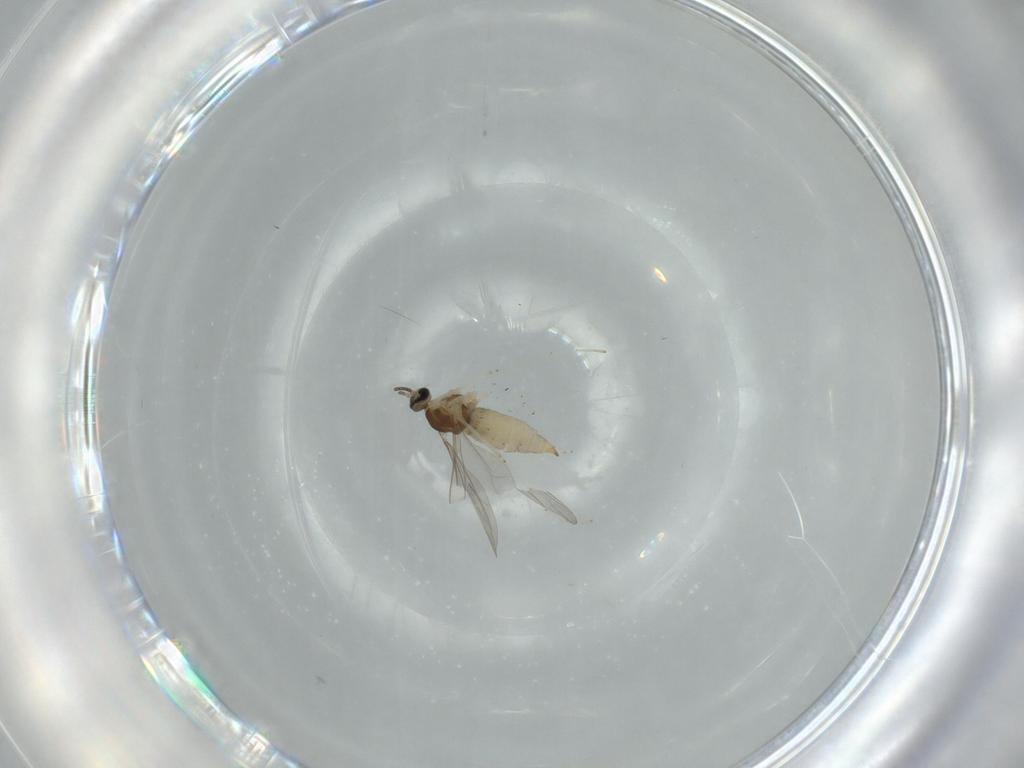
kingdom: Animalia
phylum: Arthropoda
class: Insecta
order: Diptera
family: Cecidomyiidae
